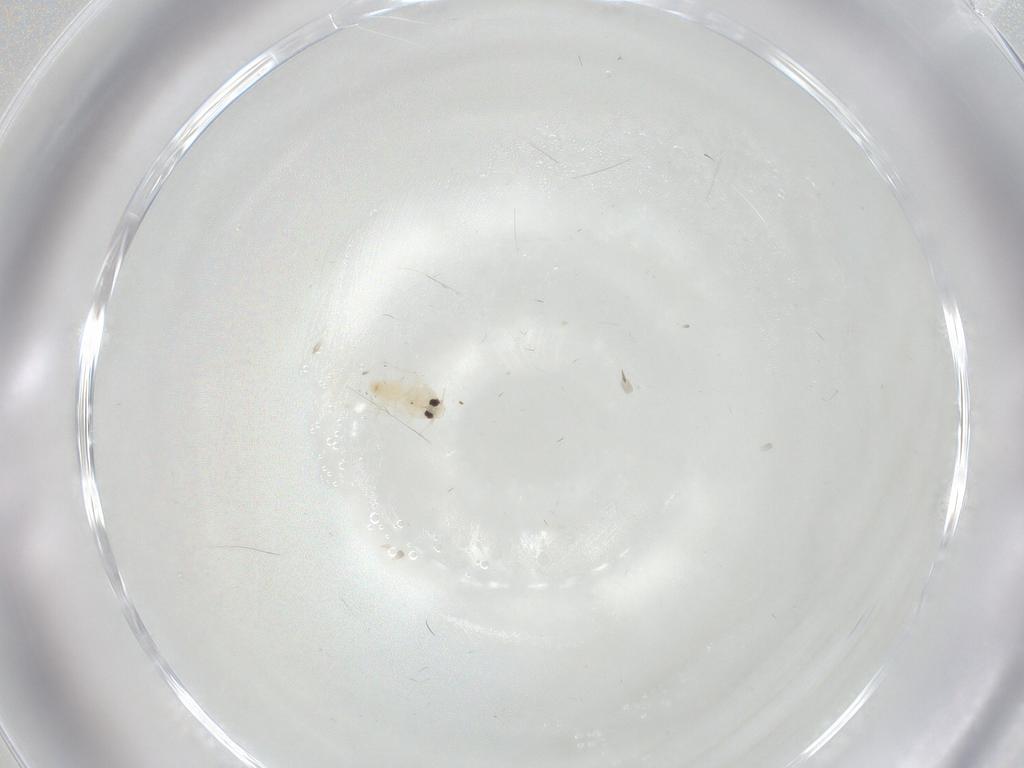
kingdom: Animalia
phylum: Arthropoda
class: Insecta
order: Hemiptera
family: Aleyrodidae
